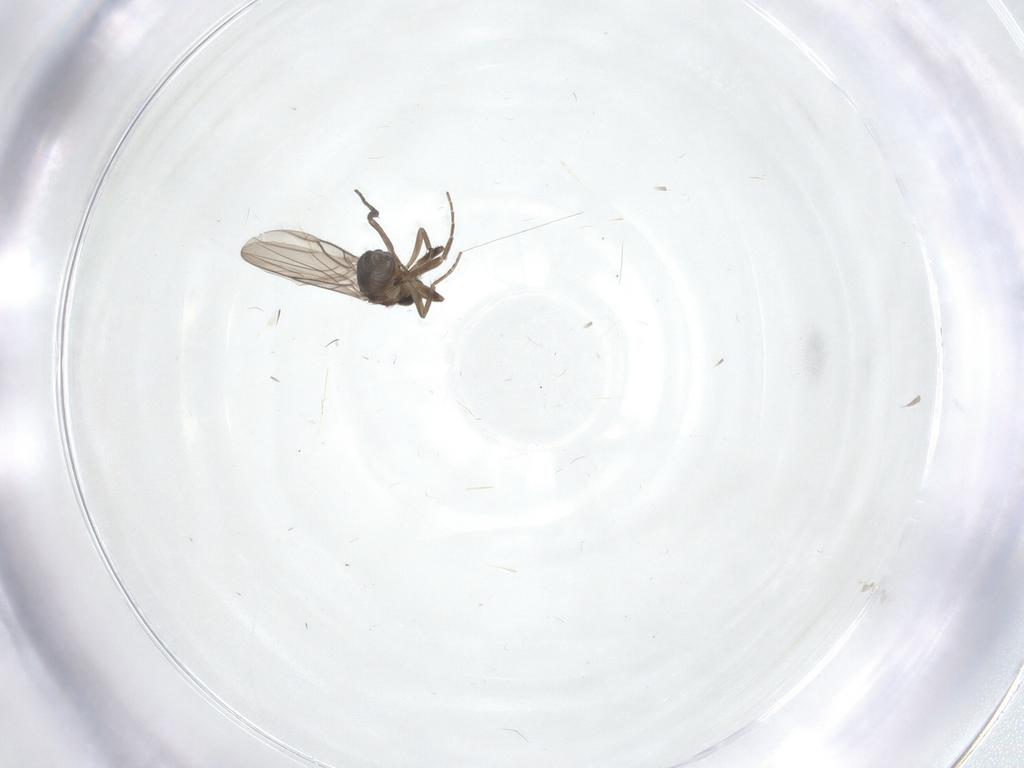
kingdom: Animalia
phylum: Arthropoda
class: Insecta
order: Diptera
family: Phoridae
